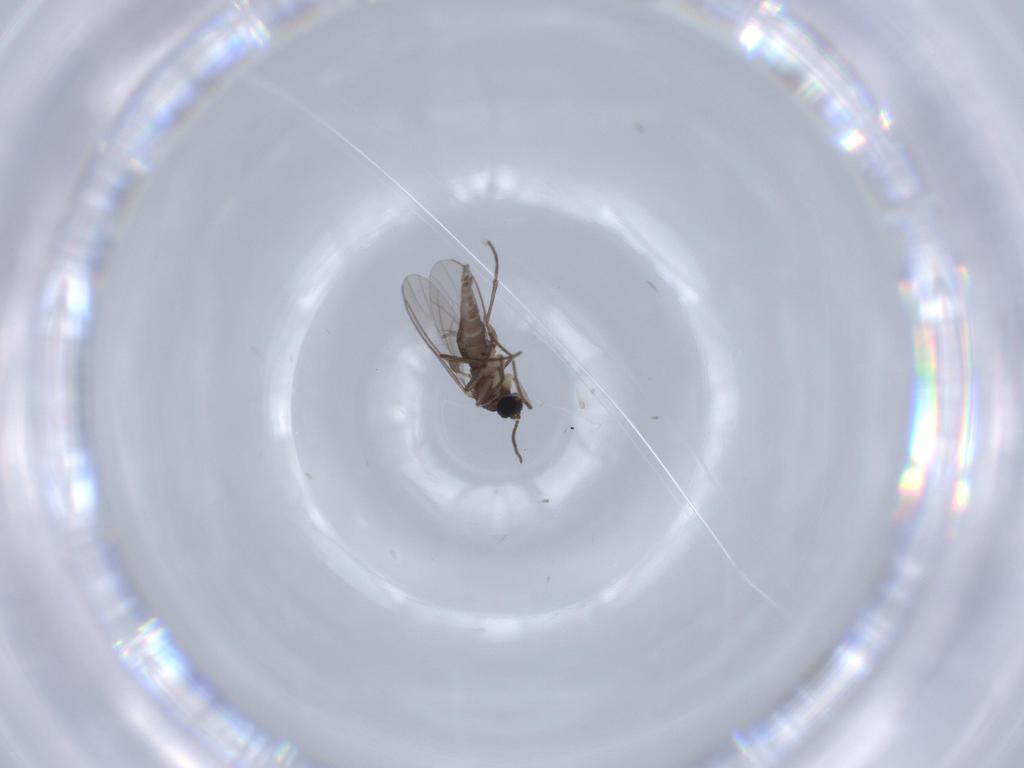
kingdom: Animalia
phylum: Arthropoda
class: Insecta
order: Diptera
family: Sciaridae
